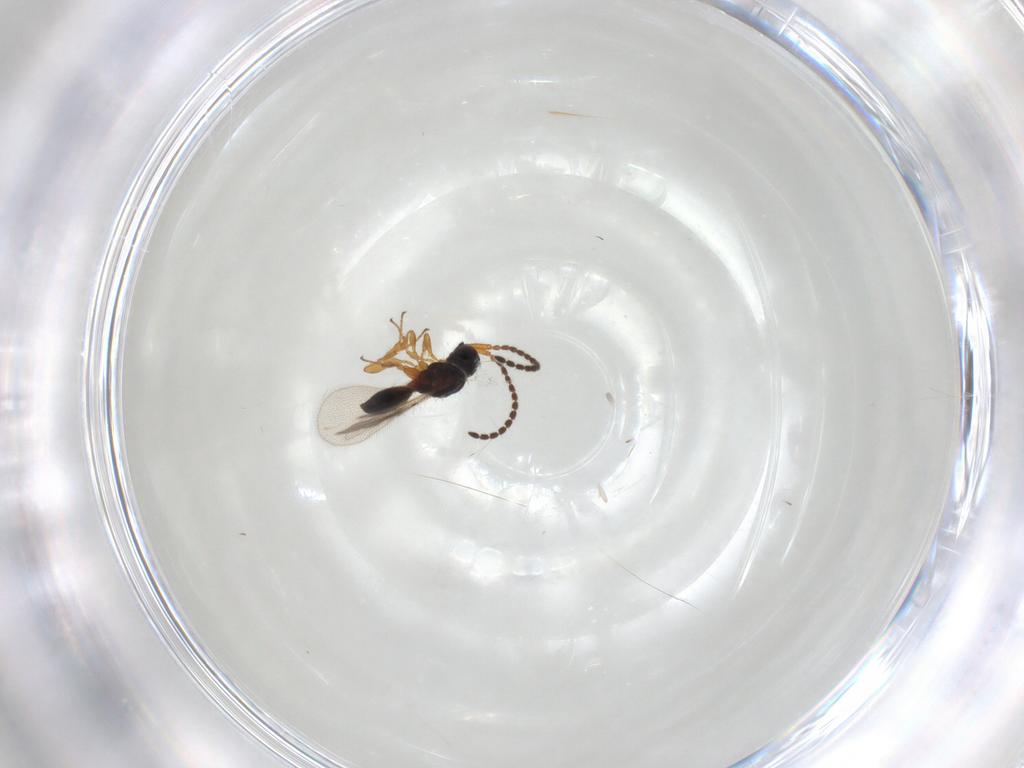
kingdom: Animalia
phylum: Arthropoda
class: Insecta
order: Hymenoptera
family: Diapriidae
